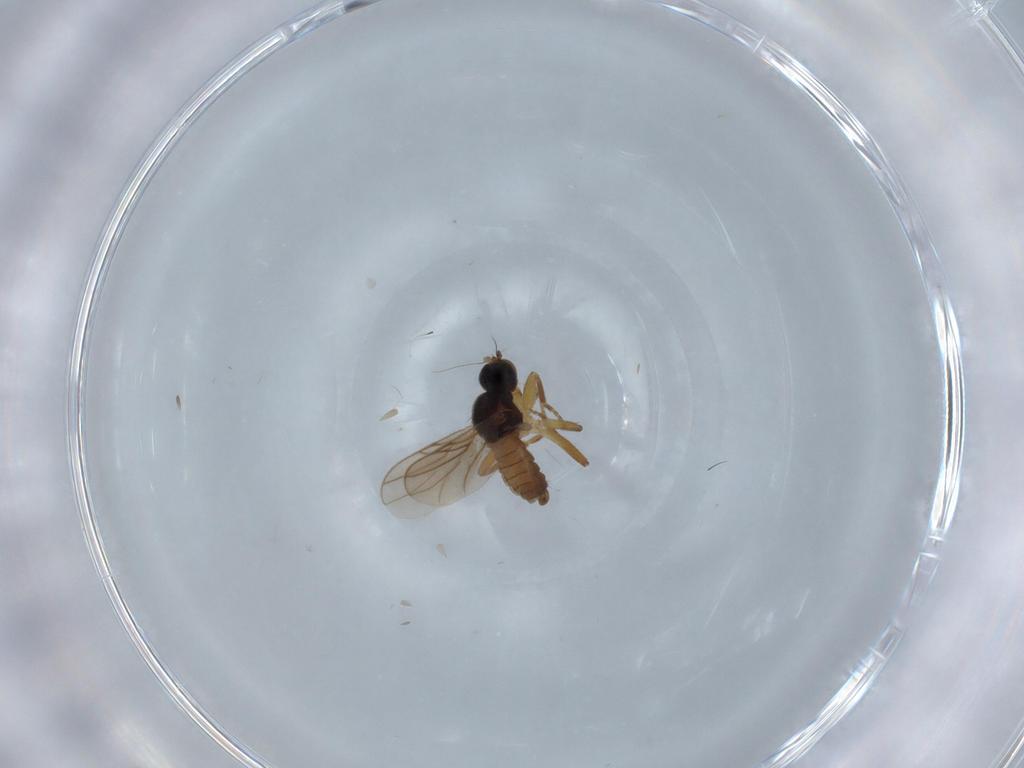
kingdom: Animalia
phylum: Arthropoda
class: Insecta
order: Diptera
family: Hybotidae
